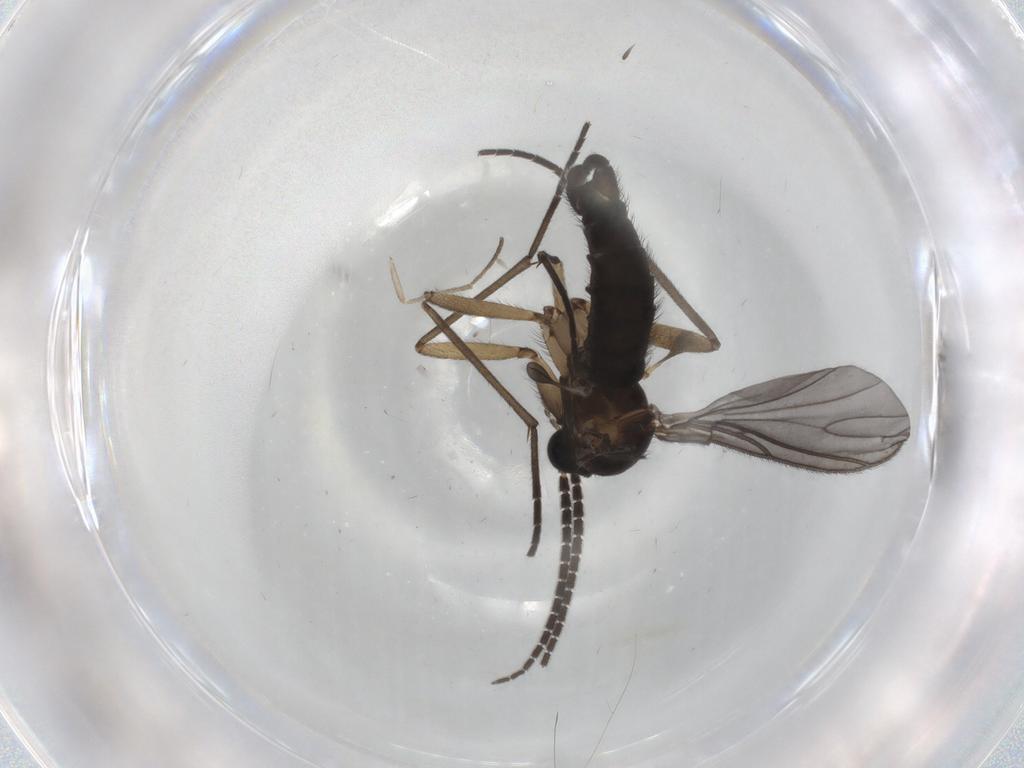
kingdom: Animalia
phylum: Arthropoda
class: Insecta
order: Diptera
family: Sciaridae
